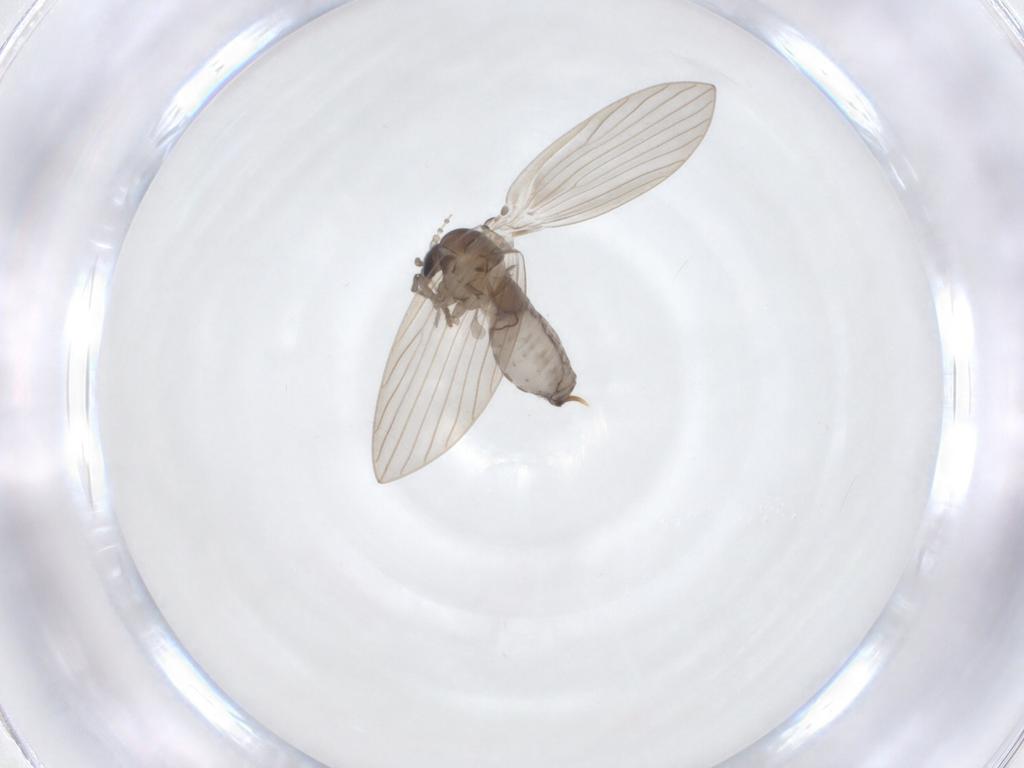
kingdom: Animalia
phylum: Arthropoda
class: Insecta
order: Diptera
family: Psychodidae
